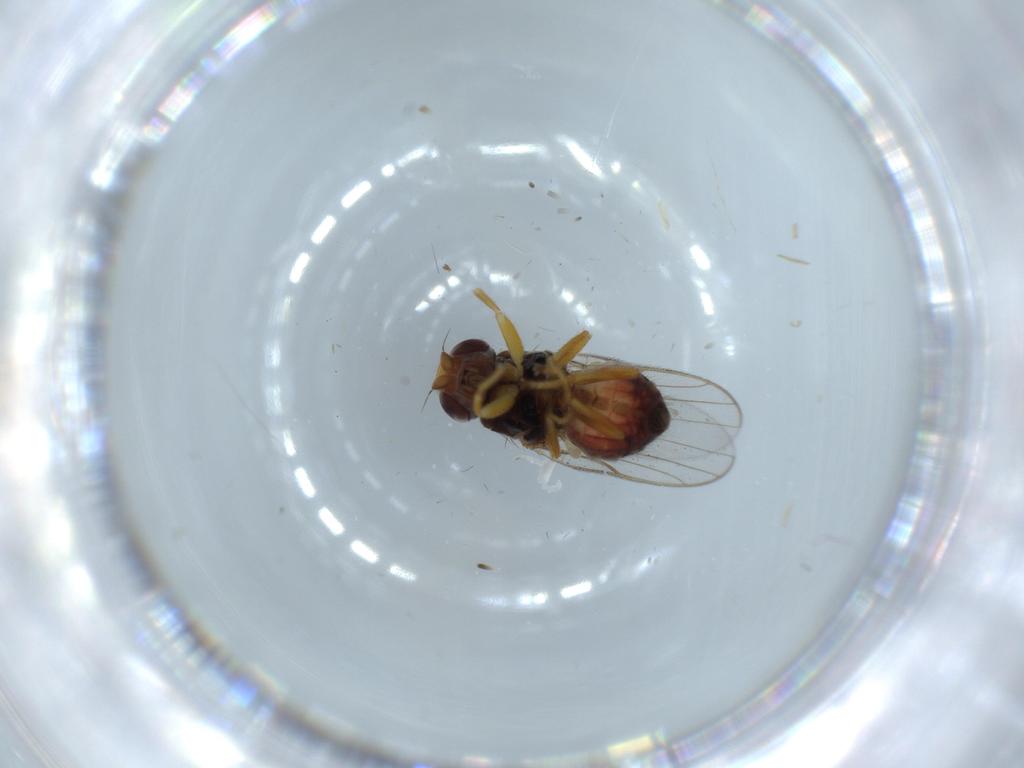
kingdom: Animalia
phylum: Arthropoda
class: Insecta
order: Diptera
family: Chloropidae
